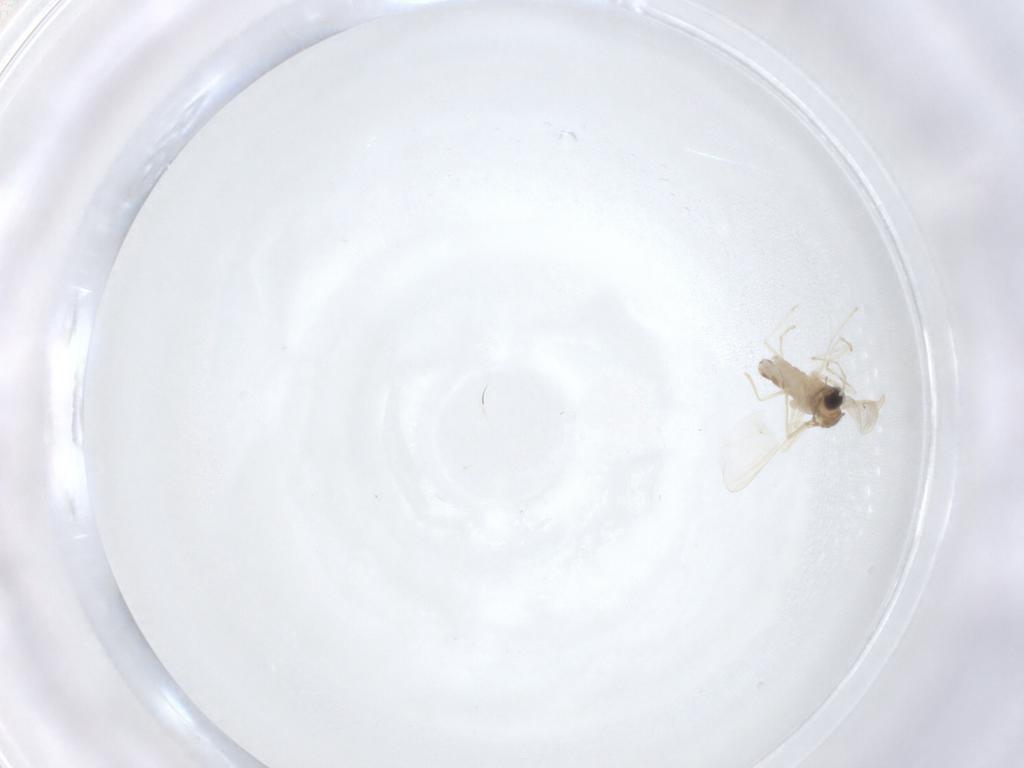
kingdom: Animalia
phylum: Arthropoda
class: Insecta
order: Diptera
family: Cecidomyiidae
